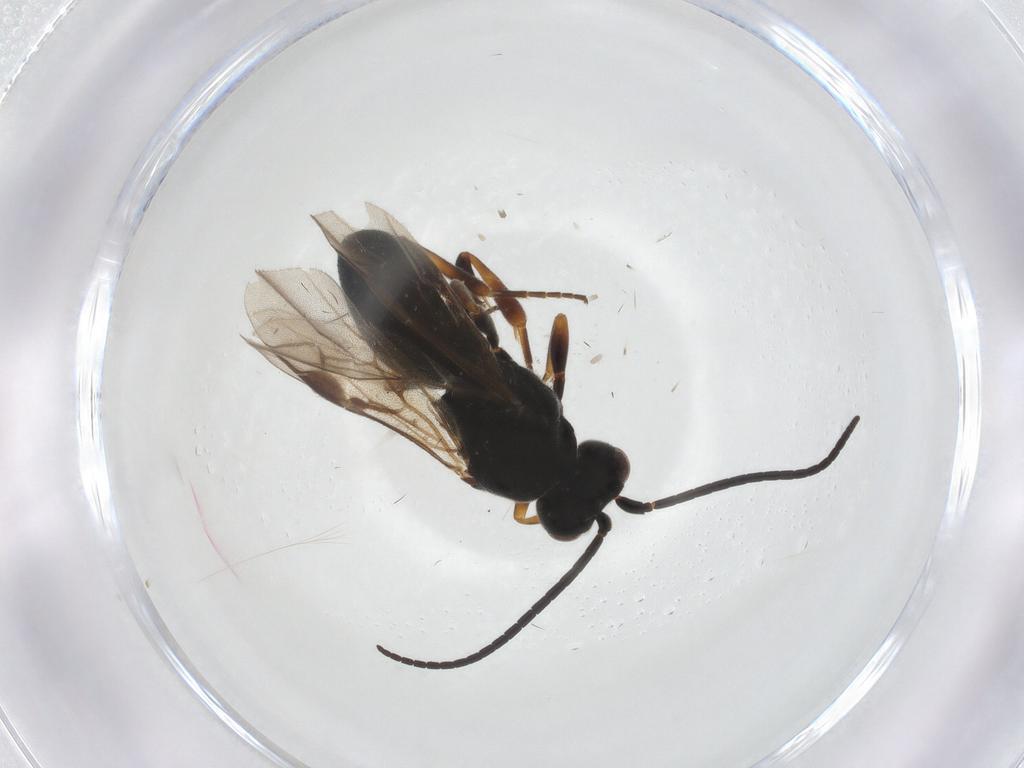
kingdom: Animalia
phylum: Arthropoda
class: Insecta
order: Hymenoptera
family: Braconidae
